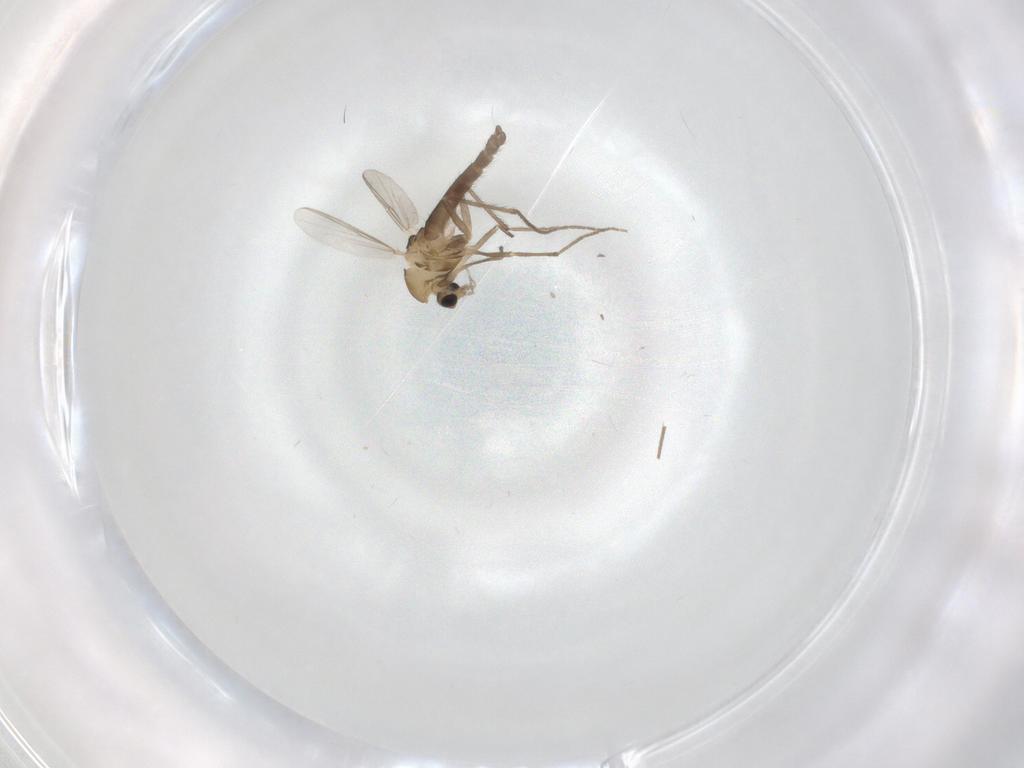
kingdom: Animalia
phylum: Arthropoda
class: Insecta
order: Diptera
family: Chironomidae
